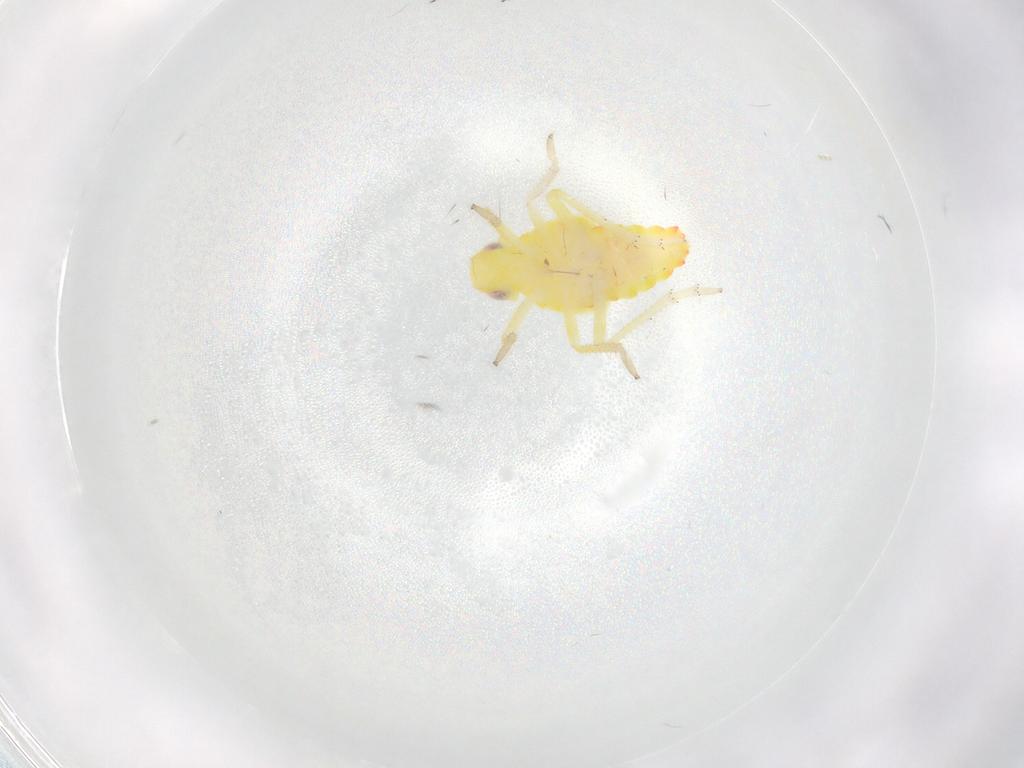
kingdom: Animalia
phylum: Arthropoda
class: Insecta
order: Hemiptera
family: Tropiduchidae
